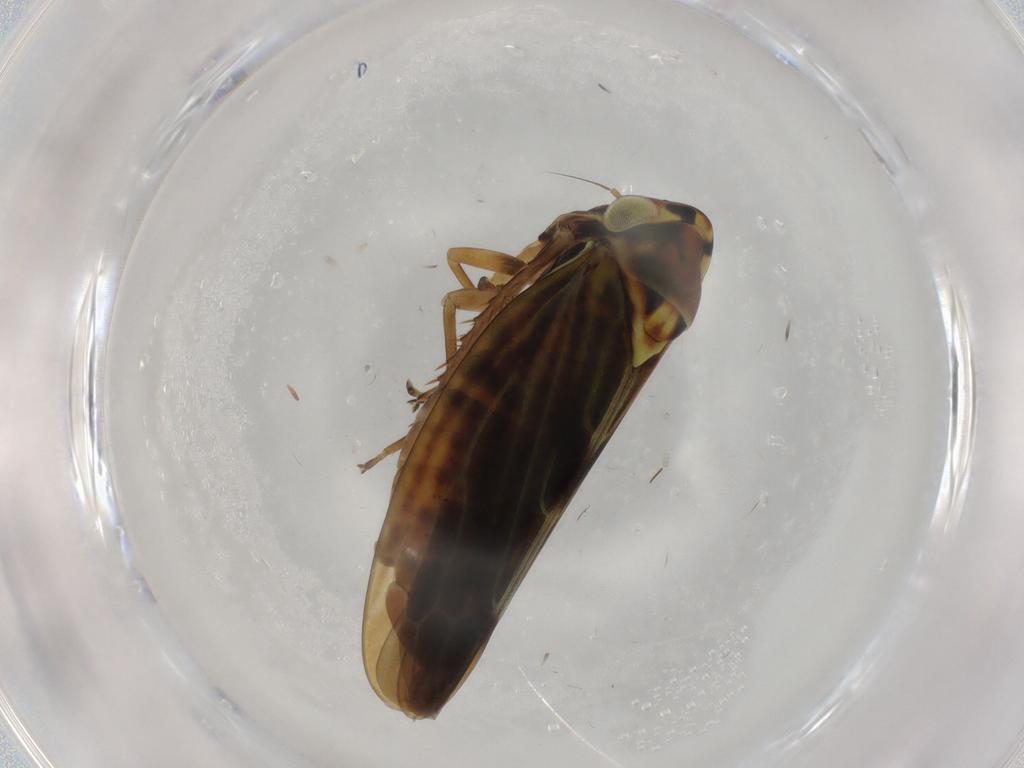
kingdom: Animalia
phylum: Arthropoda
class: Insecta
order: Hemiptera
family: Cicadellidae
